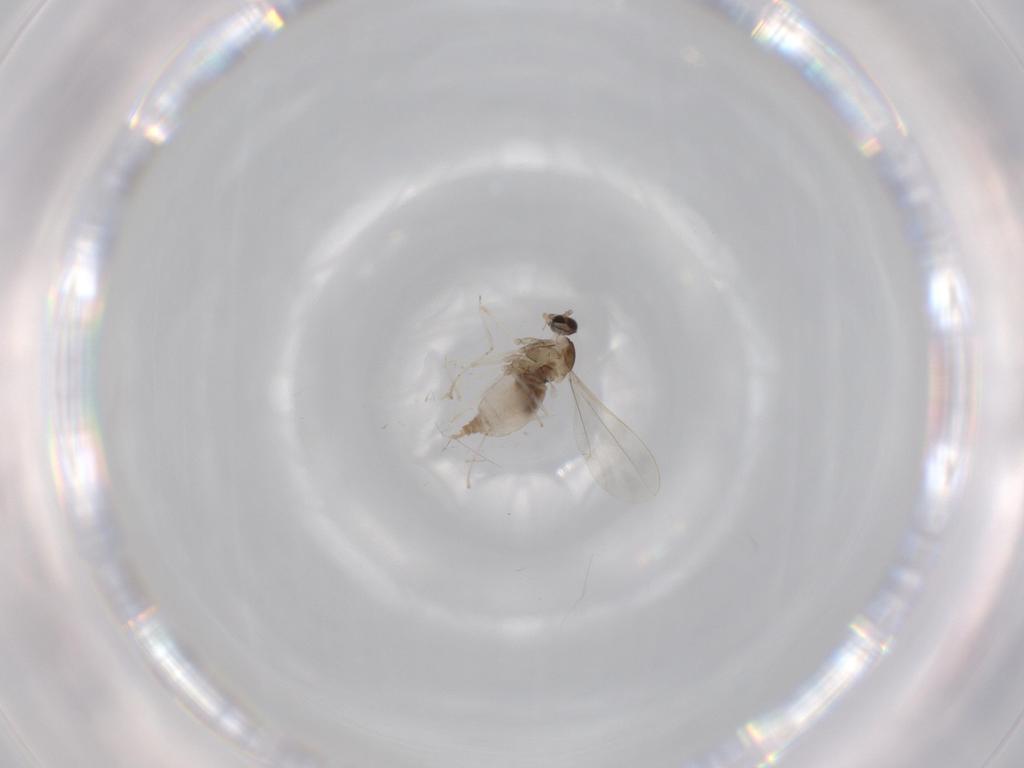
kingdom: Animalia
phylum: Arthropoda
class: Insecta
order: Diptera
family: Cecidomyiidae
